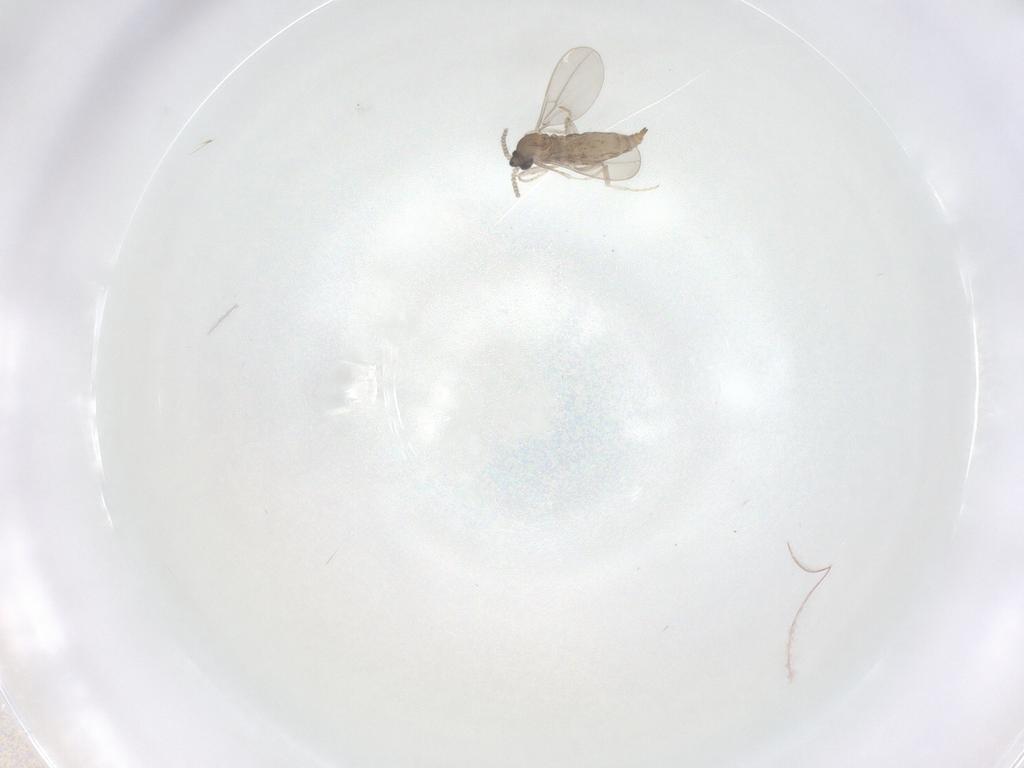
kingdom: Animalia
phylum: Arthropoda
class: Insecta
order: Diptera
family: Cecidomyiidae
